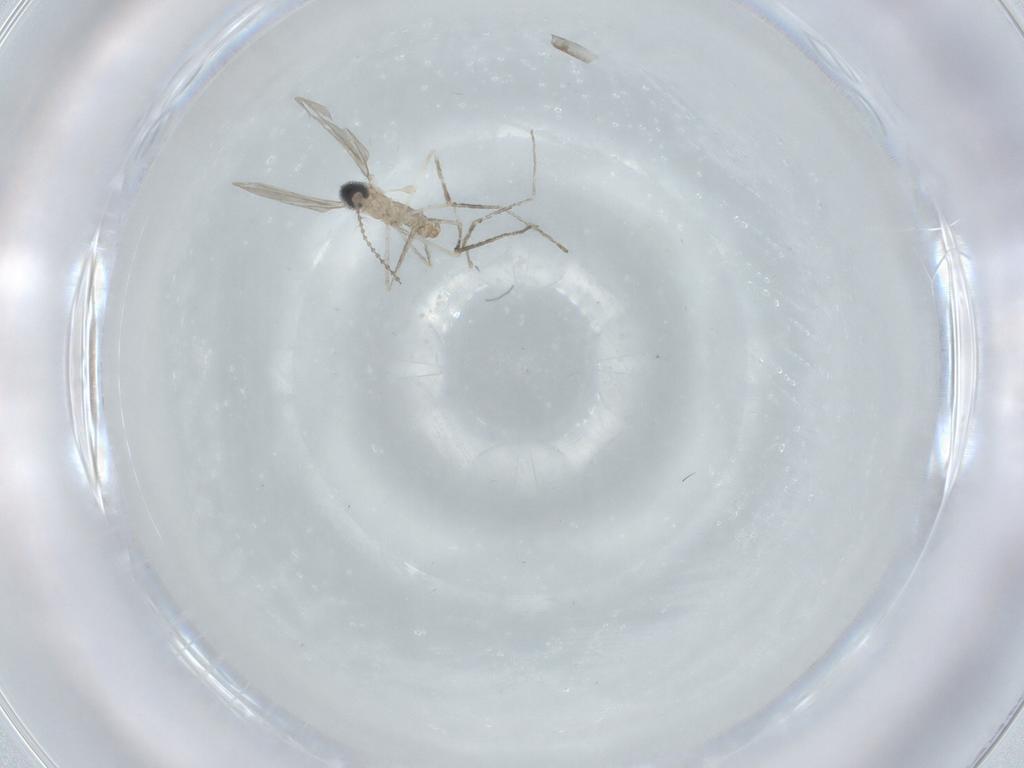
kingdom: Animalia
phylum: Arthropoda
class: Insecta
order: Diptera
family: Cecidomyiidae
